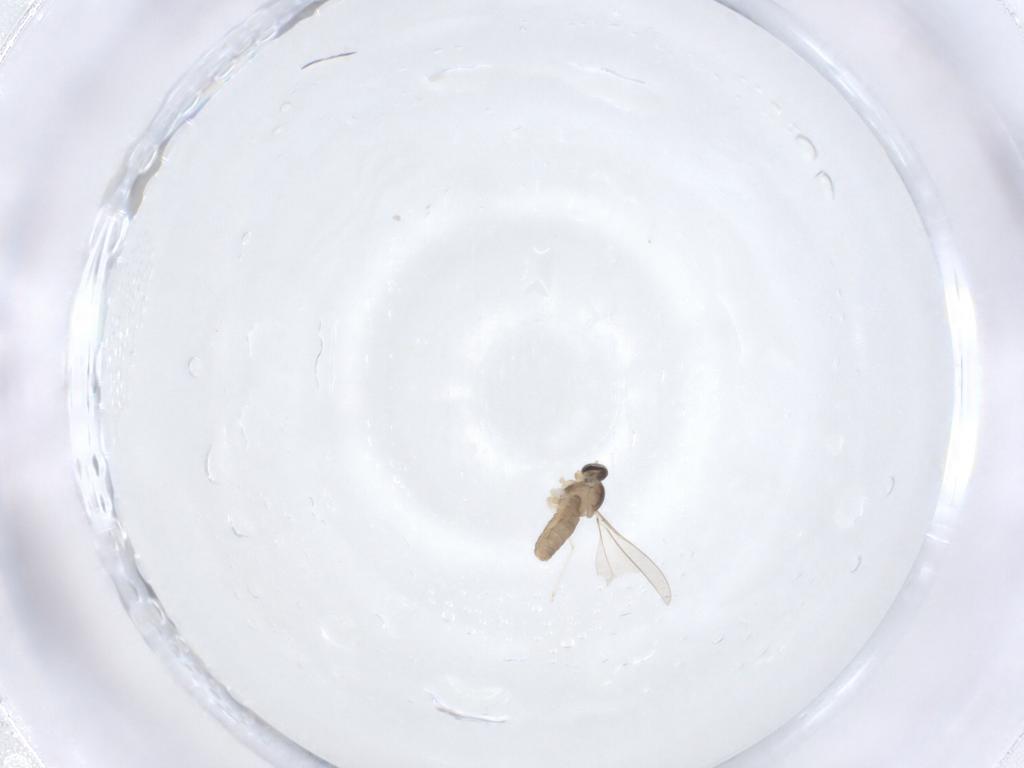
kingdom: Animalia
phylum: Arthropoda
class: Insecta
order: Diptera
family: Cecidomyiidae
